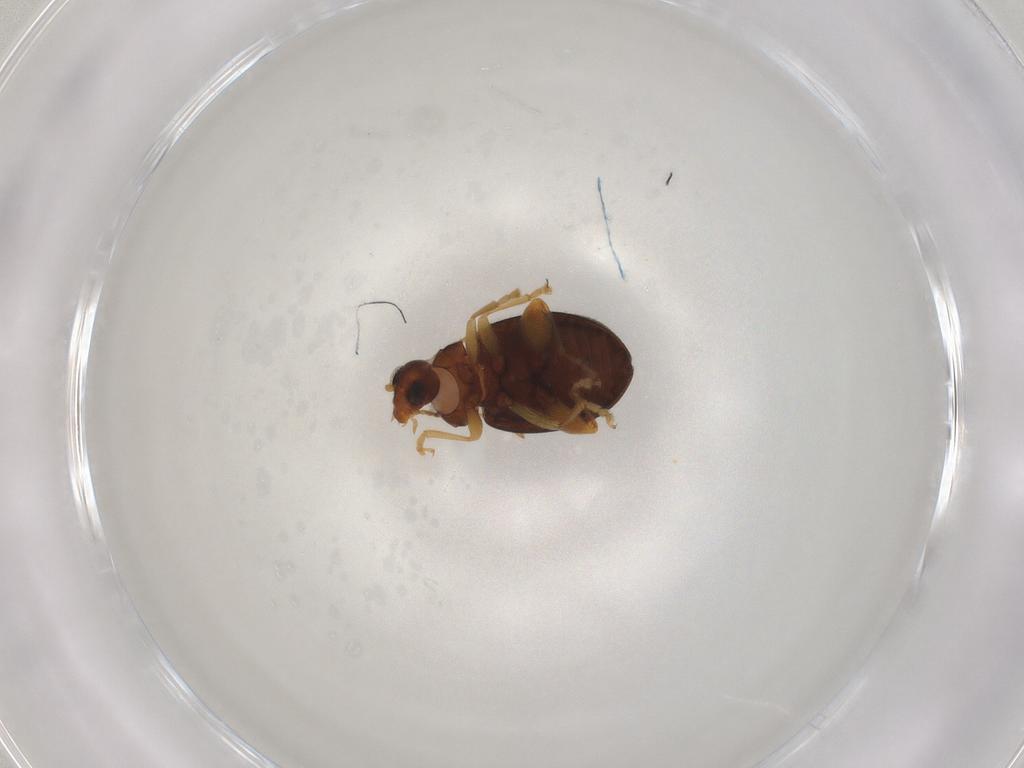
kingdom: Animalia
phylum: Arthropoda
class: Insecta
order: Coleoptera
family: Chrysomelidae
